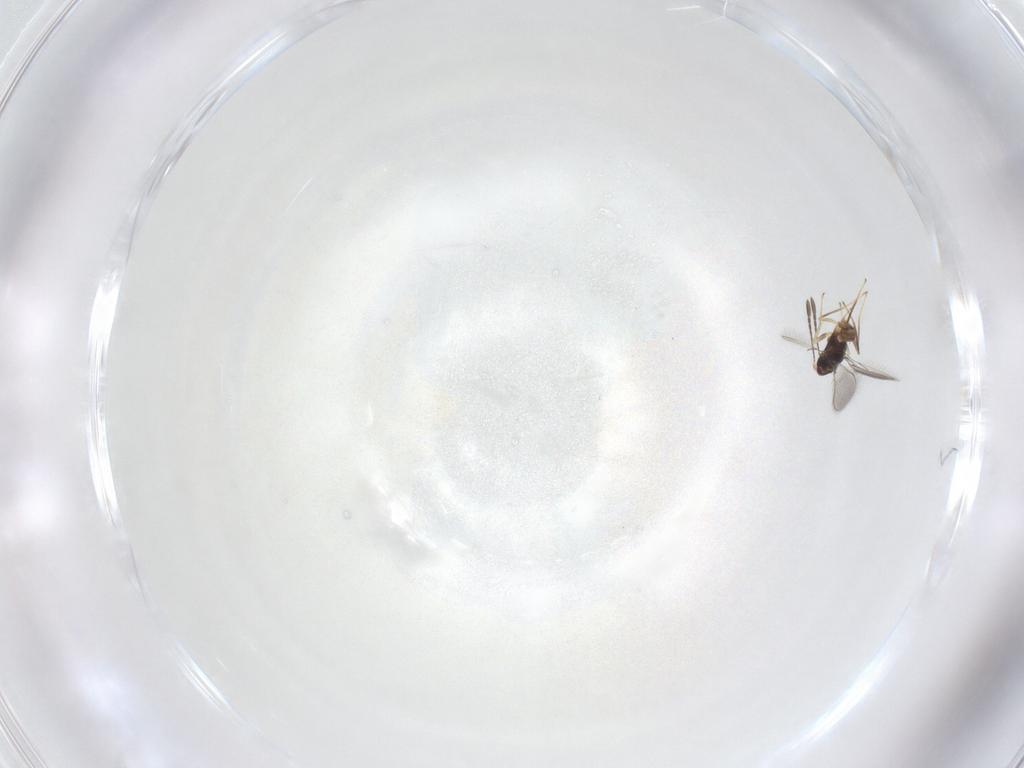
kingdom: Animalia
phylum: Arthropoda
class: Insecta
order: Hymenoptera
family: Mymaridae
